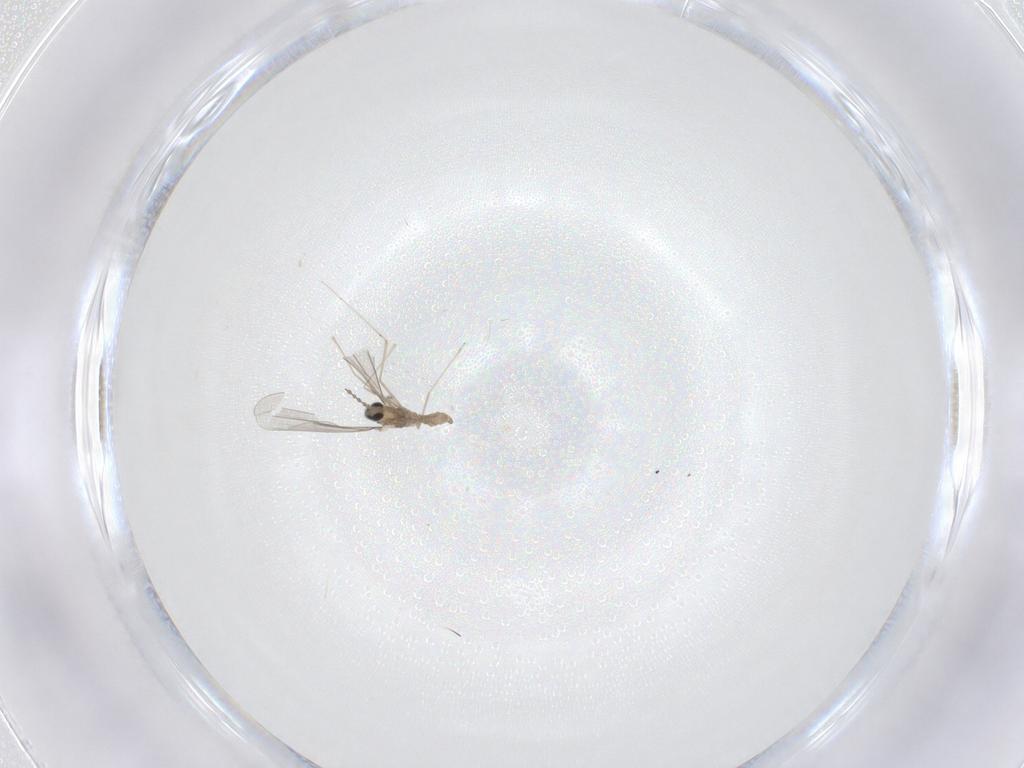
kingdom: Animalia
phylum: Arthropoda
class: Insecta
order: Diptera
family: Cecidomyiidae
